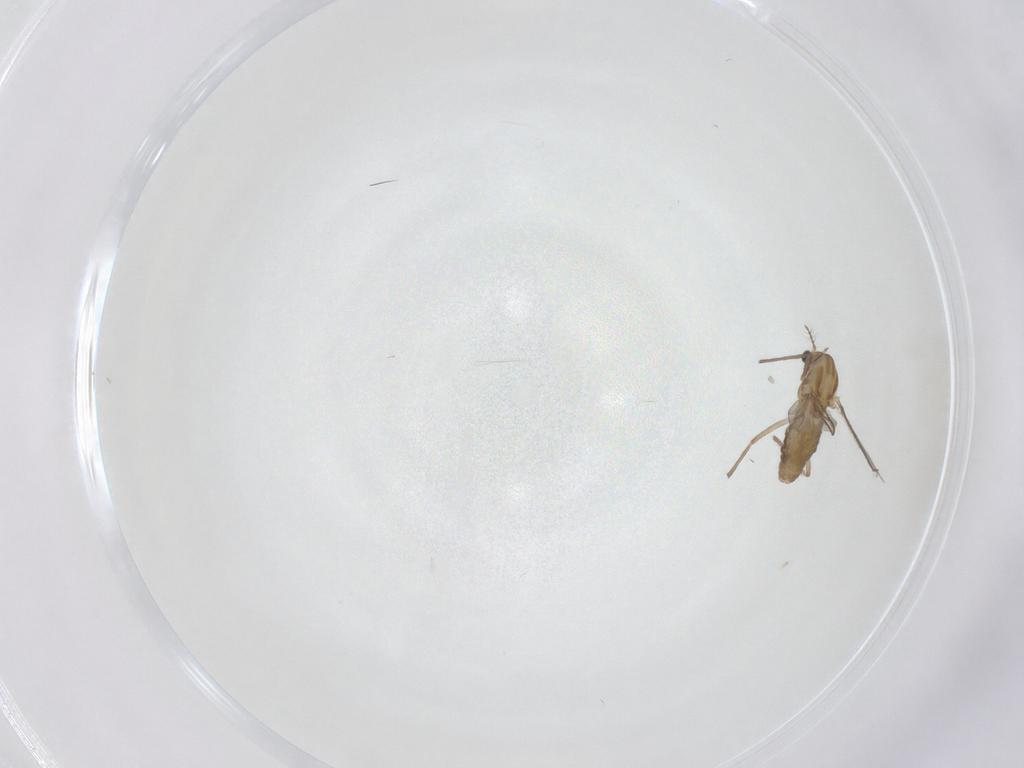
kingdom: Animalia
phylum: Arthropoda
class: Insecta
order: Diptera
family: Chironomidae
